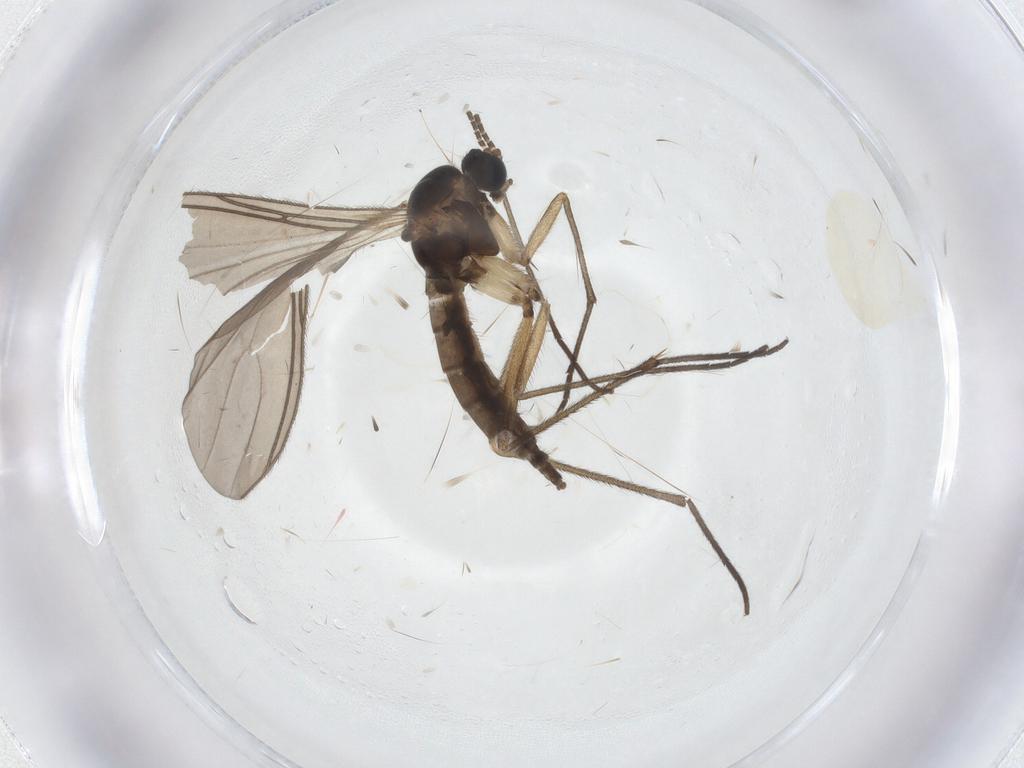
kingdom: Animalia
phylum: Arthropoda
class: Insecta
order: Diptera
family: Sciaridae
